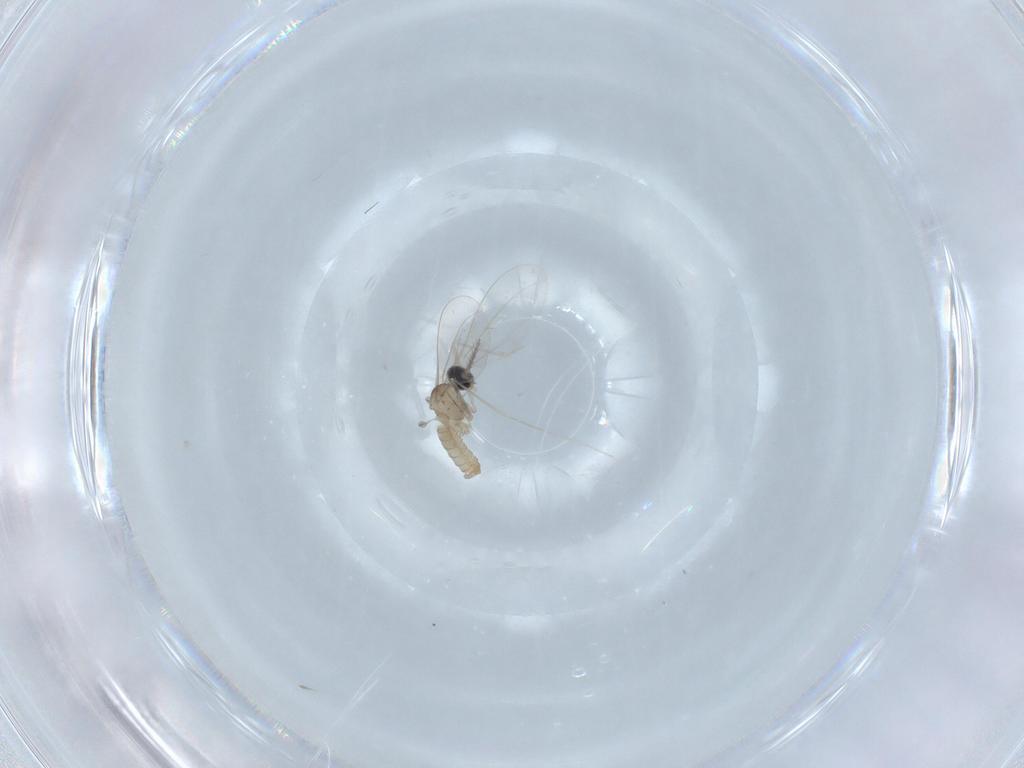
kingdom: Animalia
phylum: Arthropoda
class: Insecta
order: Diptera
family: Cecidomyiidae
